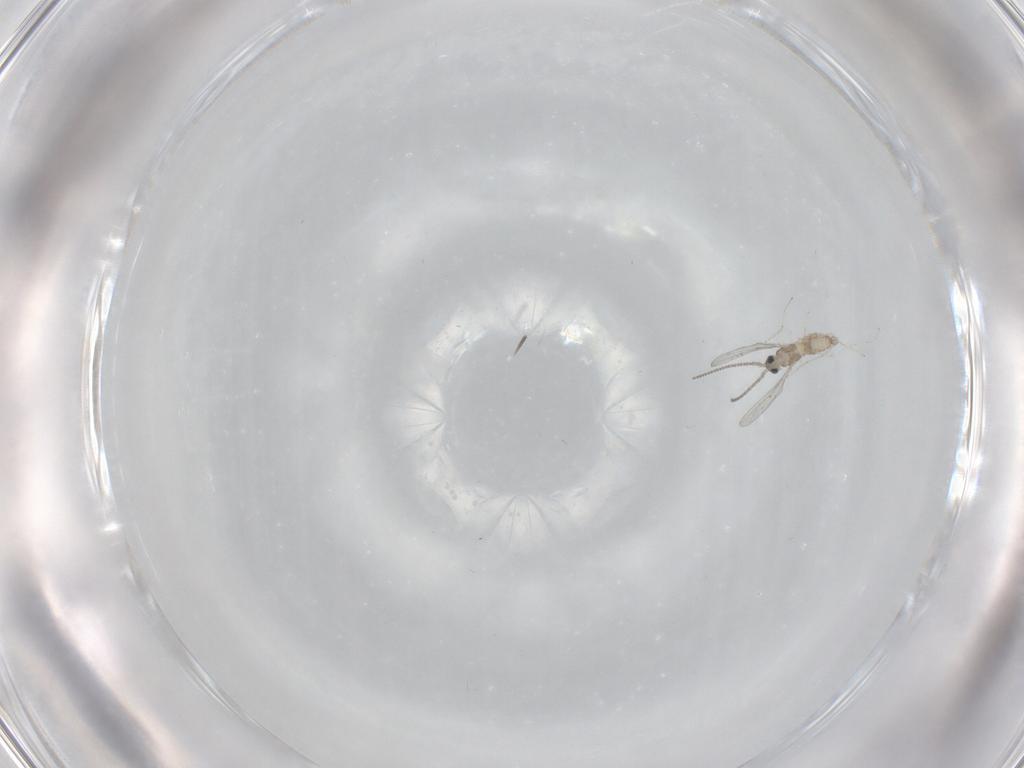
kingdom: Animalia
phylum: Arthropoda
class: Insecta
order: Diptera
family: Cecidomyiidae
